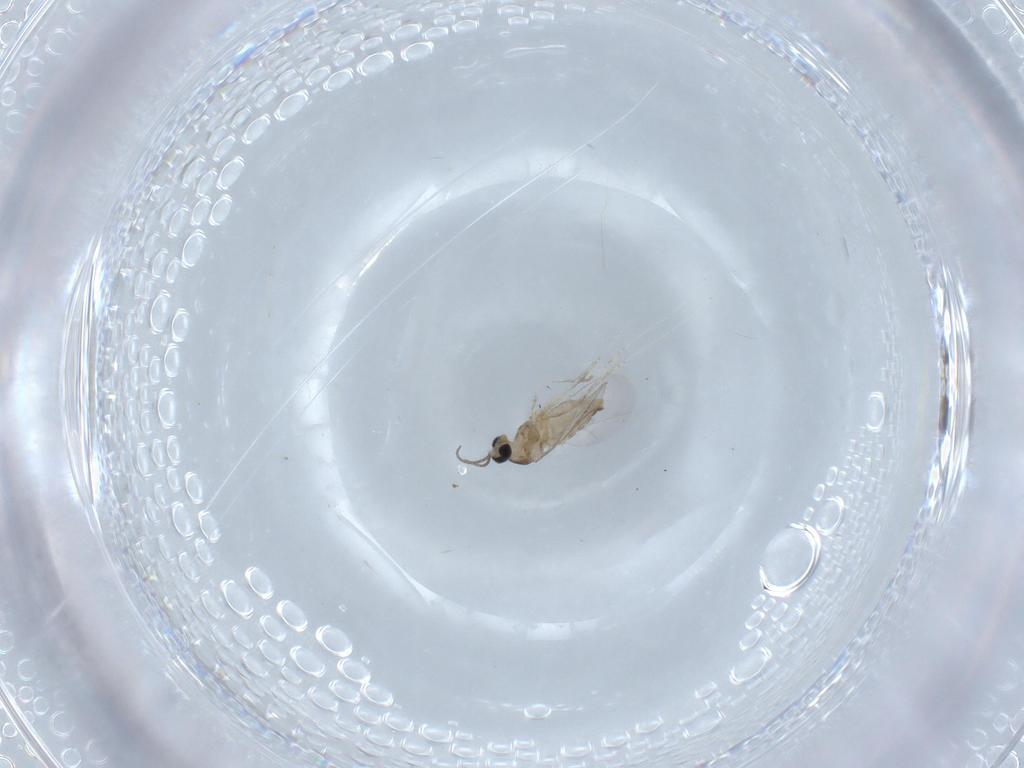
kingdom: Animalia
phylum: Arthropoda
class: Insecta
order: Diptera
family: Cecidomyiidae
